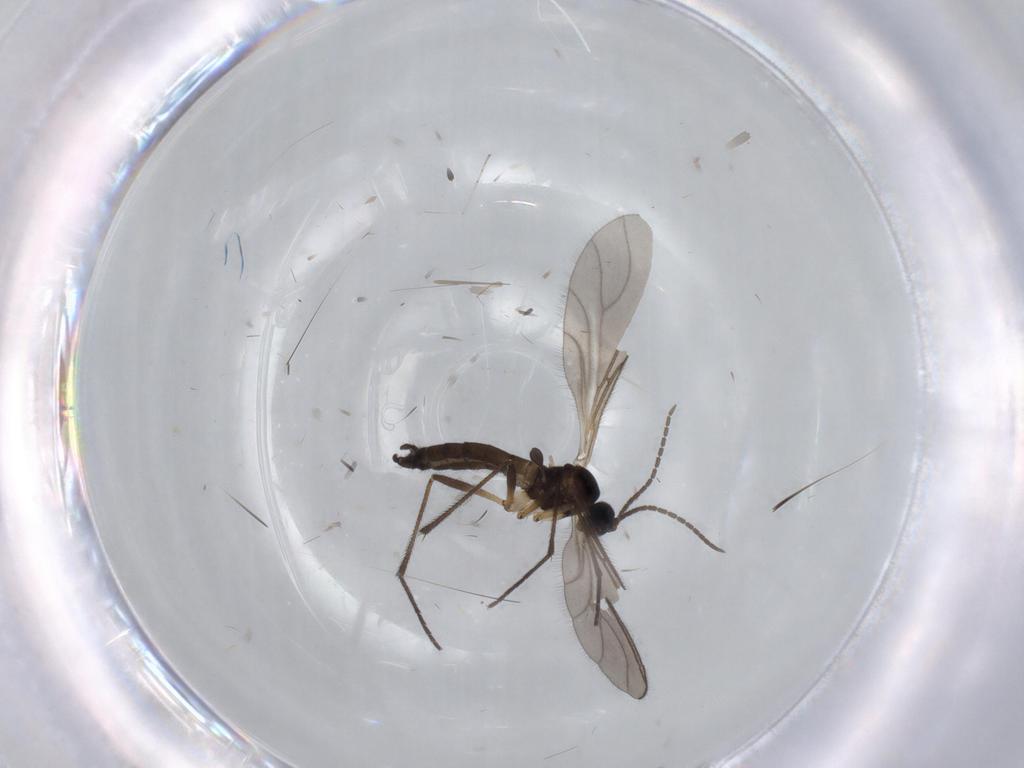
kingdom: Animalia
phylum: Arthropoda
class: Insecta
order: Diptera
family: Sciaridae
